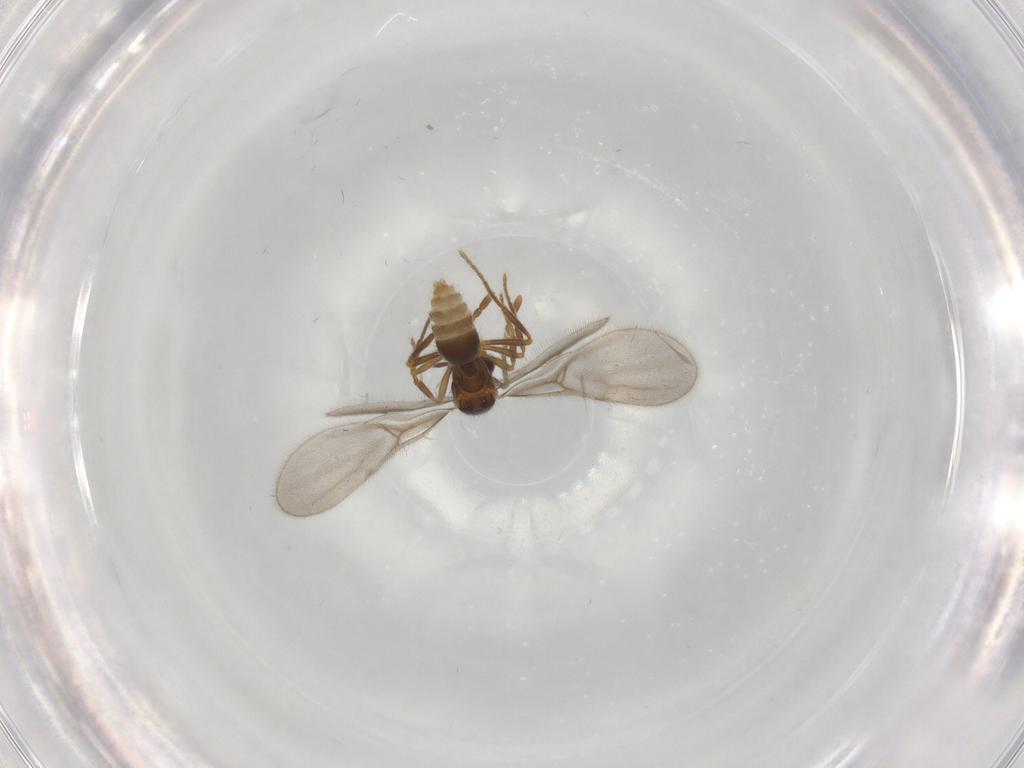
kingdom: Animalia
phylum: Arthropoda
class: Insecta
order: Hymenoptera
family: Formicidae
